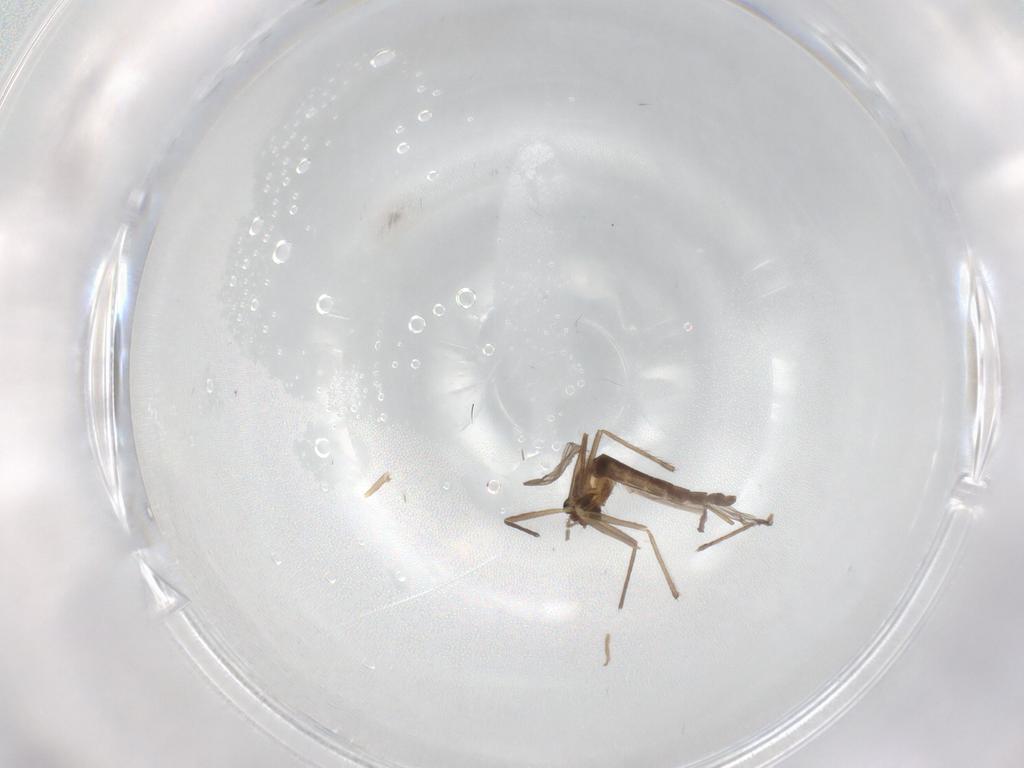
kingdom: Animalia
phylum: Arthropoda
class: Insecta
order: Diptera
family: Chironomidae
